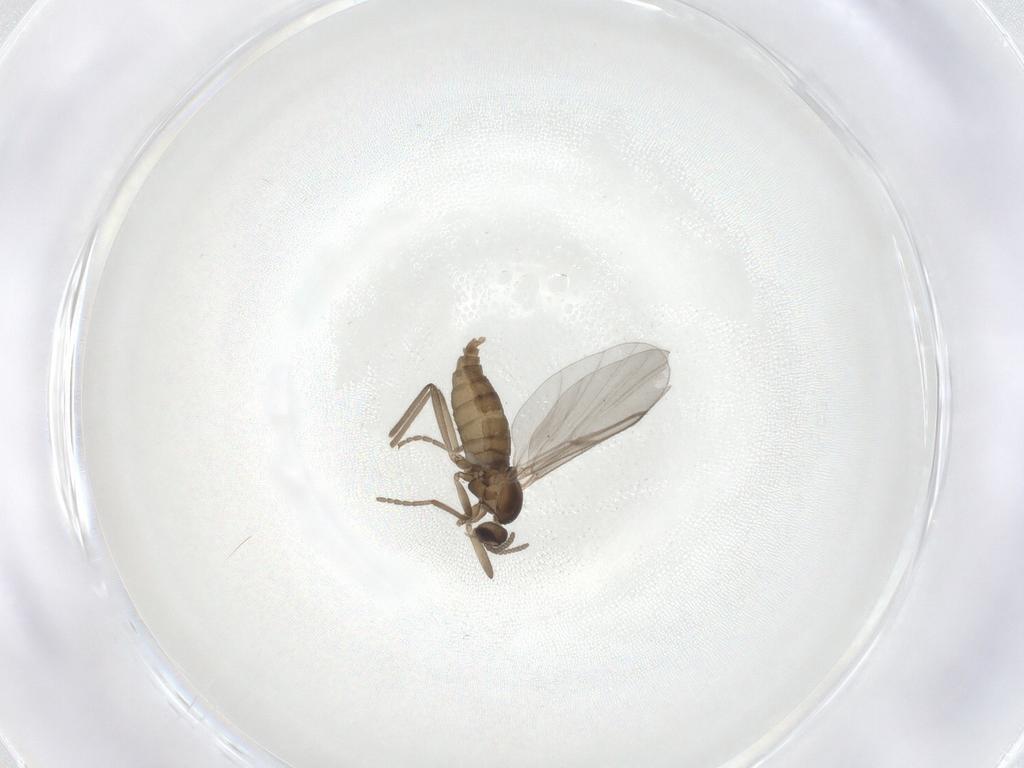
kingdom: Animalia
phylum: Arthropoda
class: Insecta
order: Diptera
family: Cecidomyiidae
